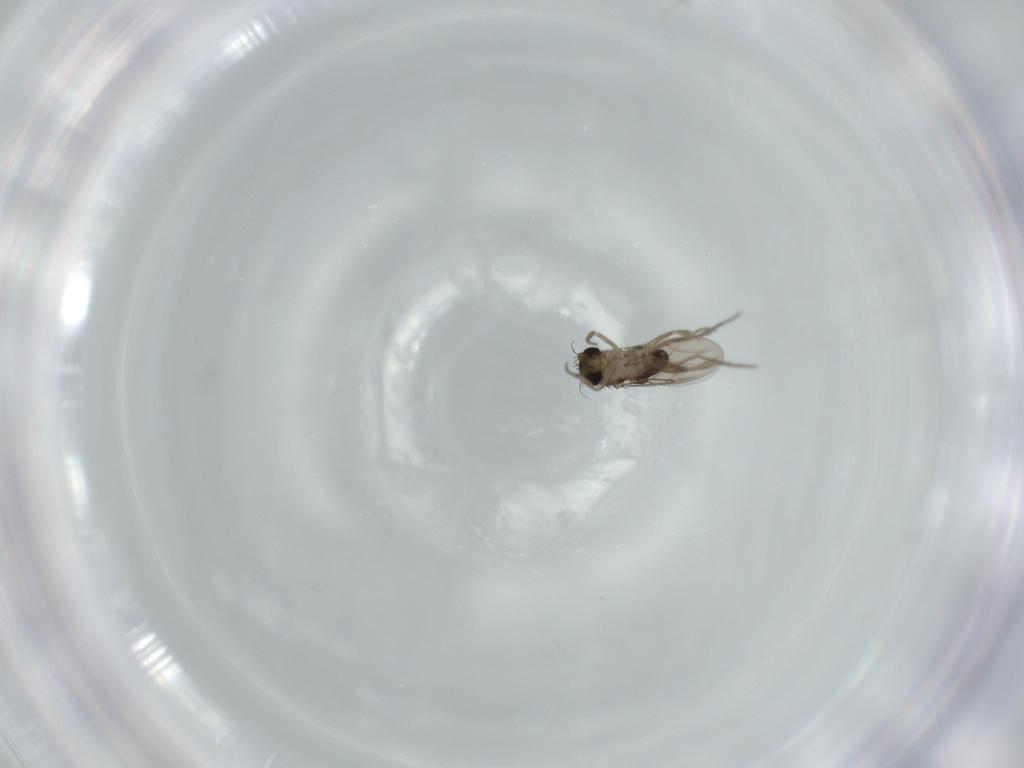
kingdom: Animalia
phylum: Arthropoda
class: Insecta
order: Diptera
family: Phoridae
